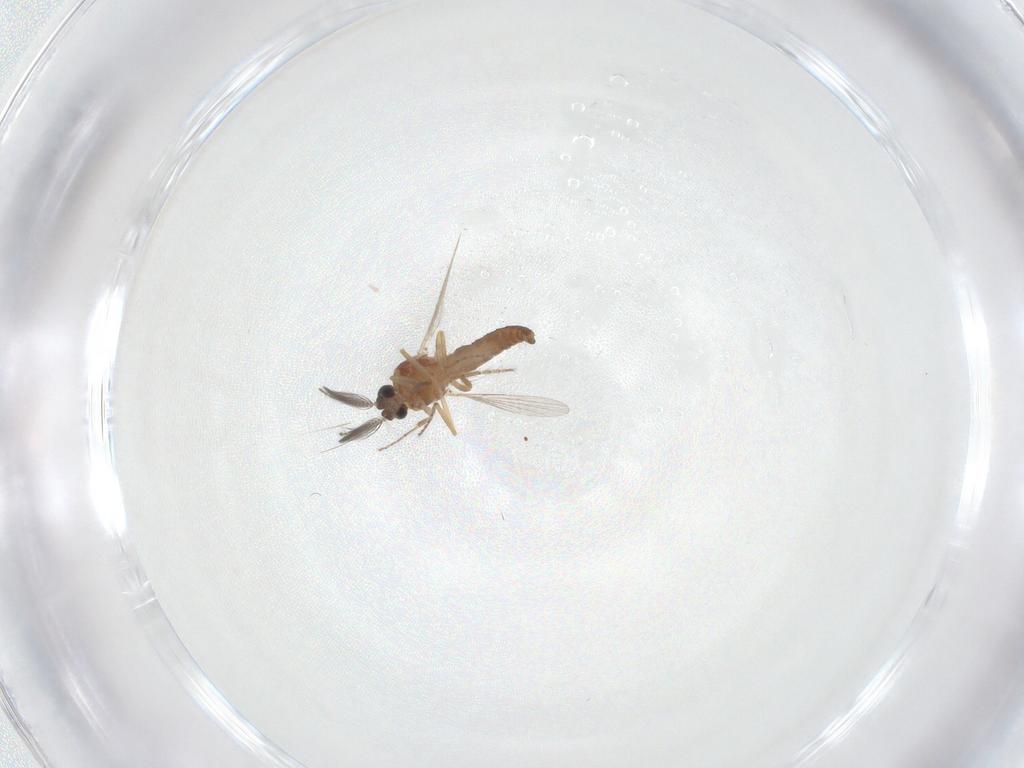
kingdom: Animalia
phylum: Arthropoda
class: Insecta
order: Diptera
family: Ceratopogonidae
